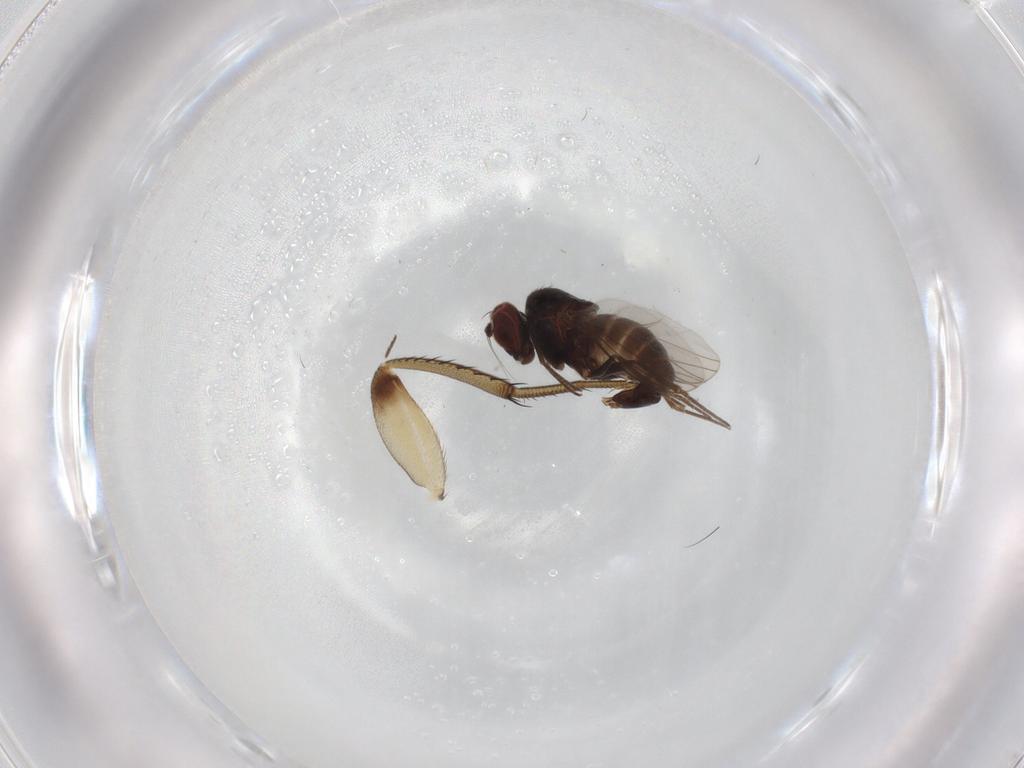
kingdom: Animalia
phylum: Arthropoda
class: Insecta
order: Diptera
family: Dolichopodidae
